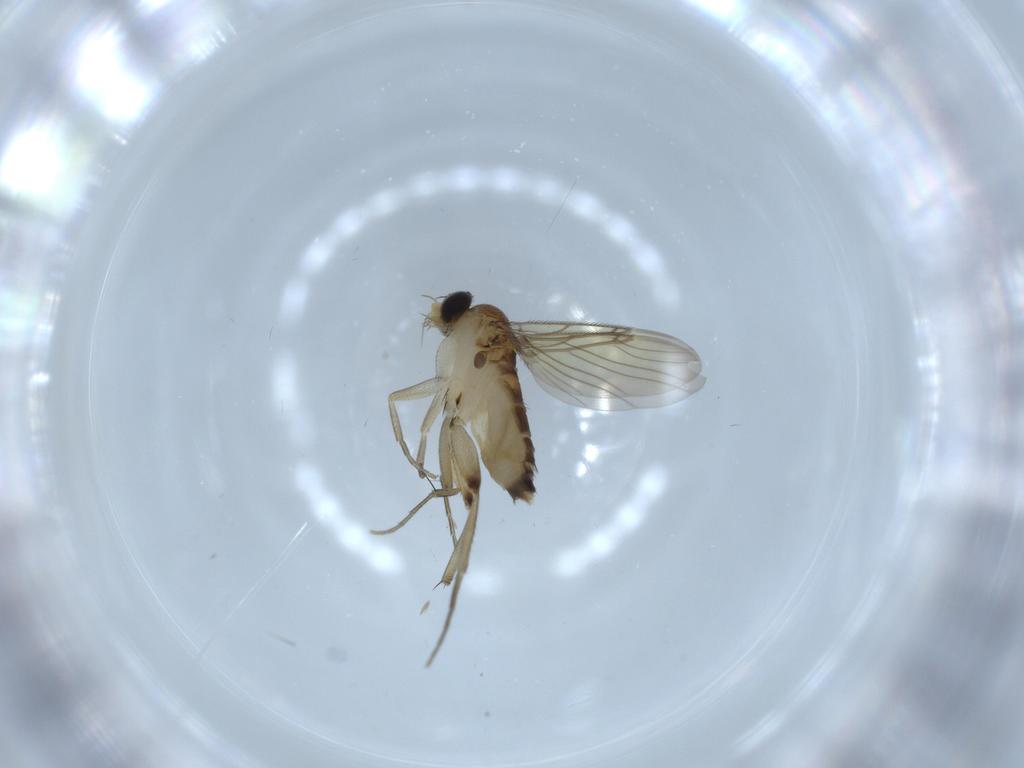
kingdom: Animalia
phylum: Arthropoda
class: Insecta
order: Diptera
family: Phoridae
